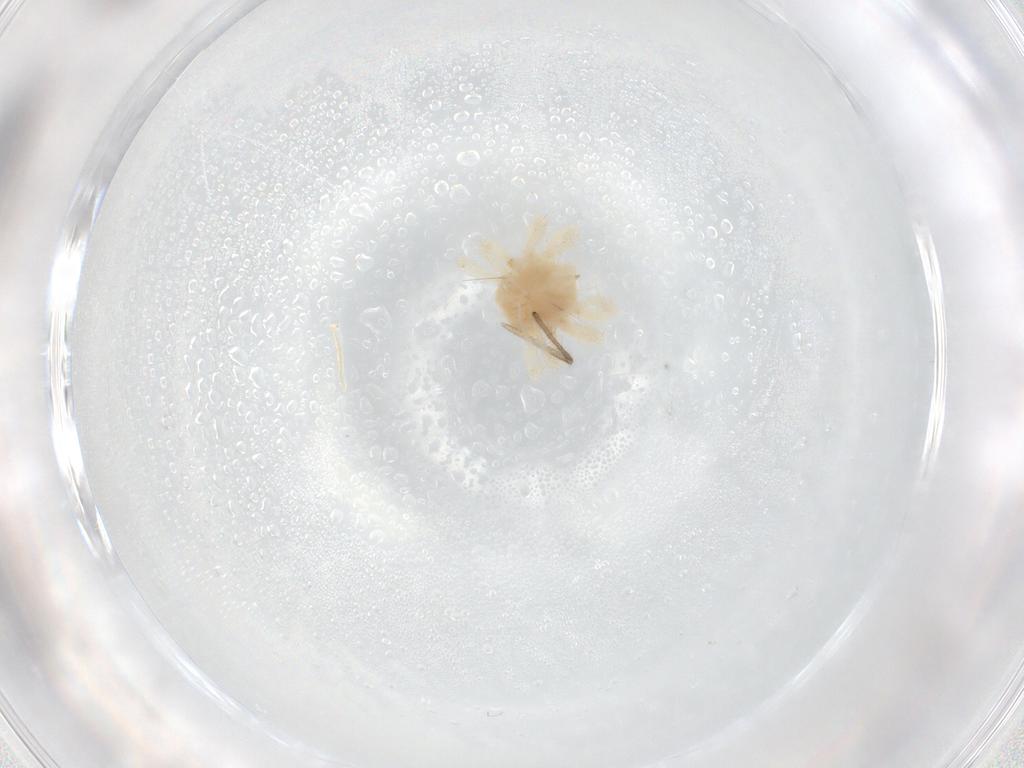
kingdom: Animalia
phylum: Arthropoda
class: Arachnida
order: Trombidiformes
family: Anystidae
